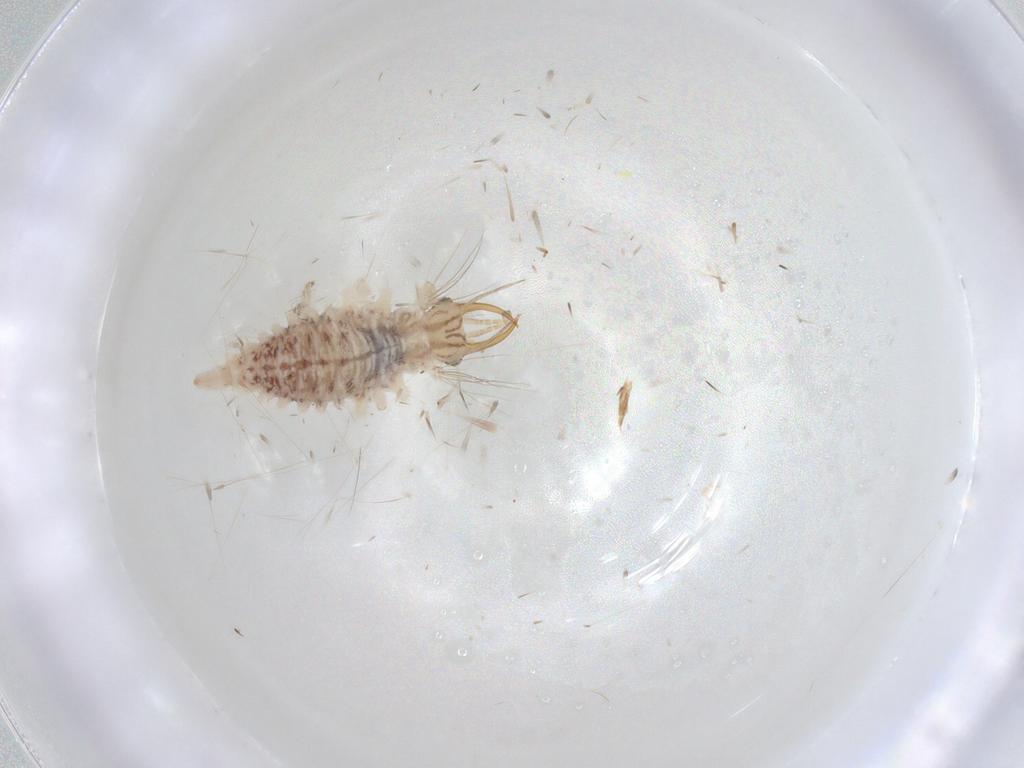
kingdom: Animalia
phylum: Arthropoda
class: Insecta
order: Neuroptera
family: Chrysopidae
